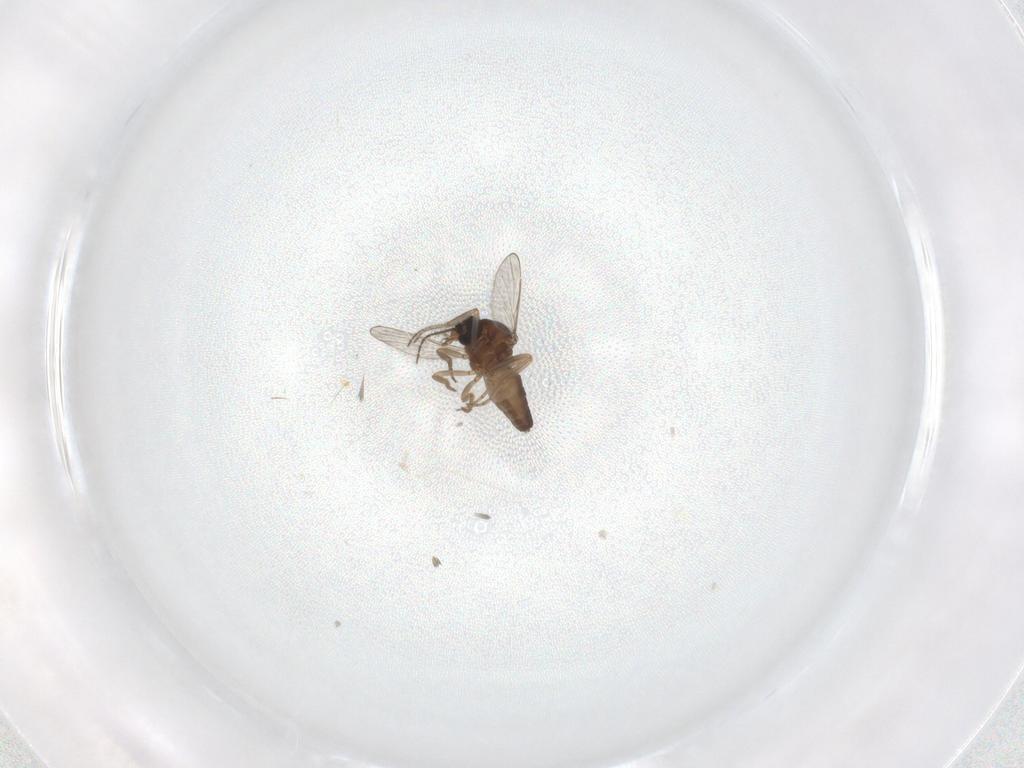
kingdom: Animalia
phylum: Arthropoda
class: Insecta
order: Diptera
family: Ceratopogonidae
